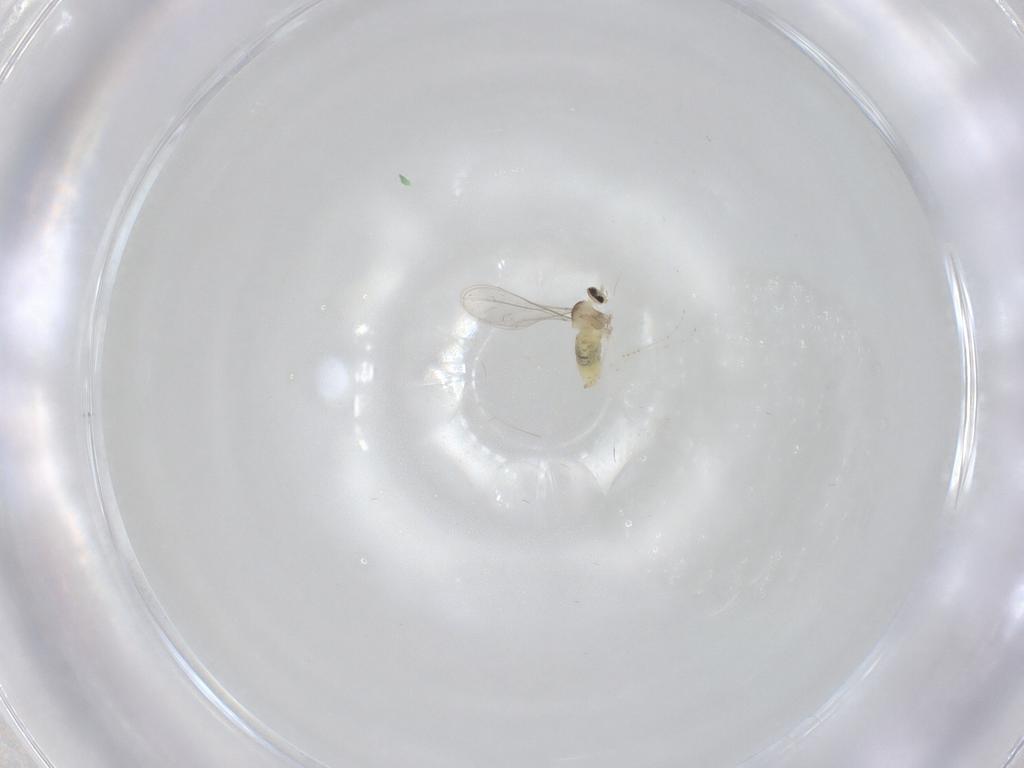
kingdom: Animalia
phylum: Arthropoda
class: Insecta
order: Diptera
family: Cecidomyiidae
